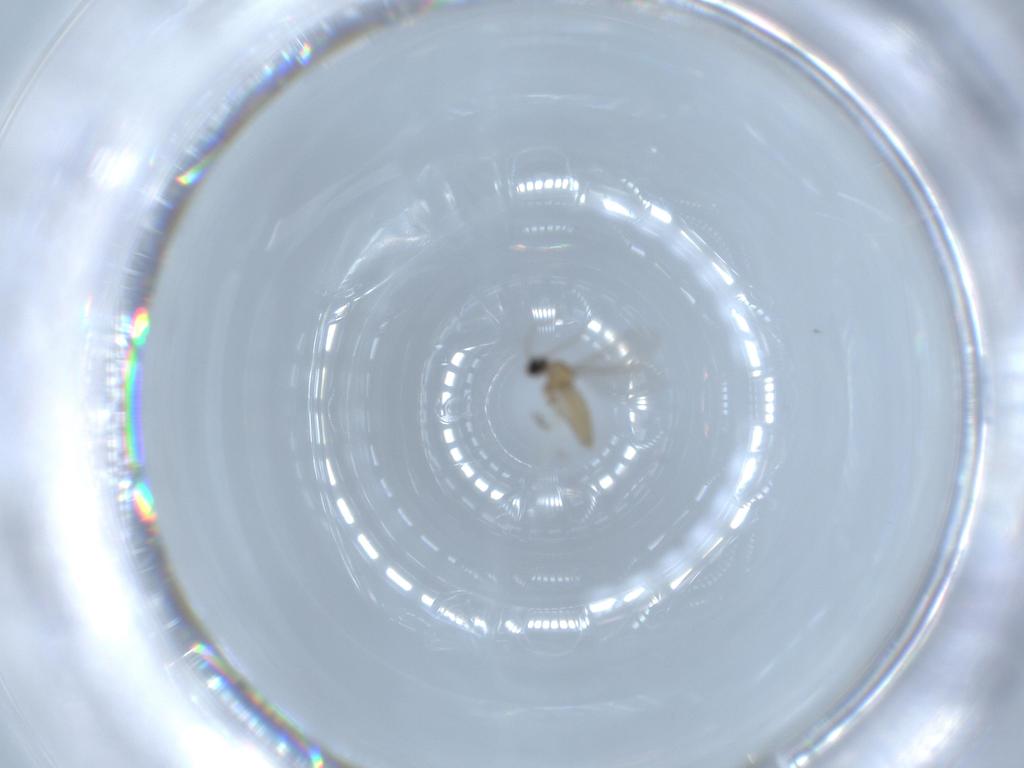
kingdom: Animalia
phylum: Arthropoda
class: Insecta
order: Diptera
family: Cecidomyiidae
